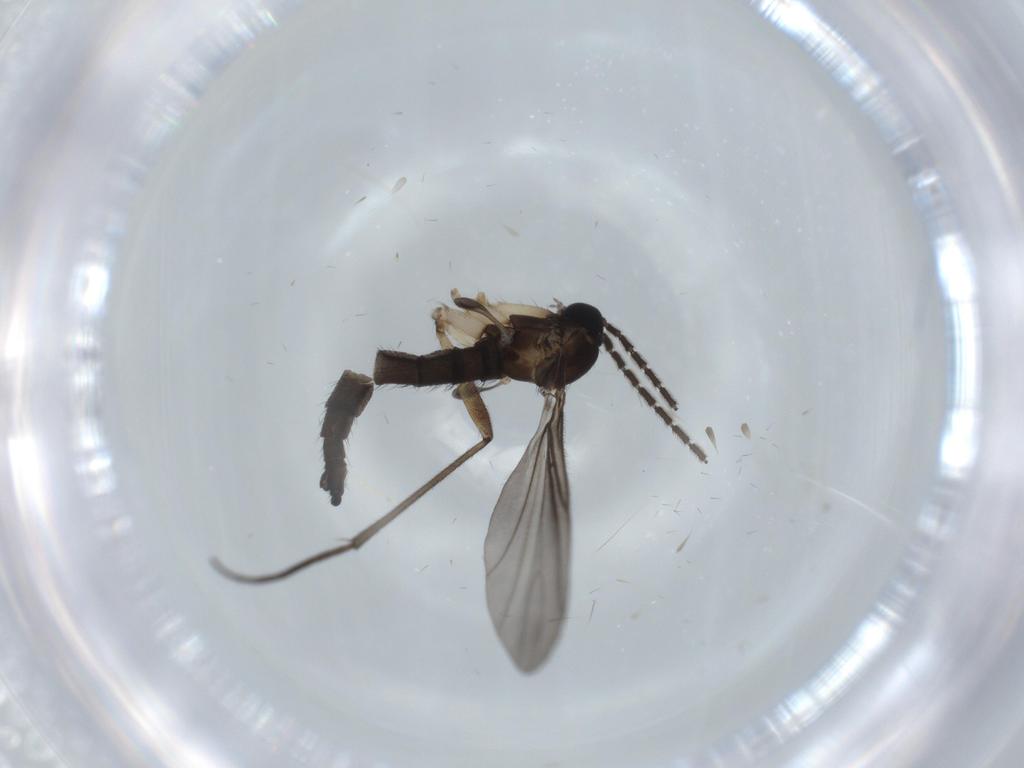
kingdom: Animalia
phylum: Arthropoda
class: Insecta
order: Diptera
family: Sciaridae
